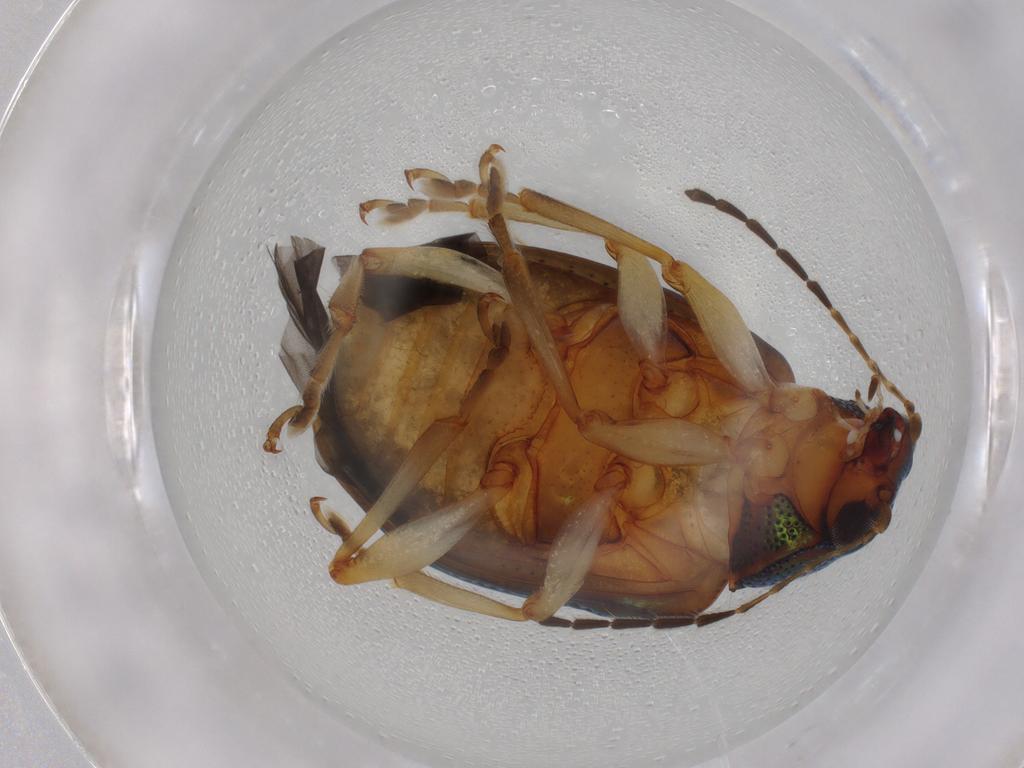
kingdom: Animalia
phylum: Arthropoda
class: Insecta
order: Coleoptera
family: Chrysomelidae
